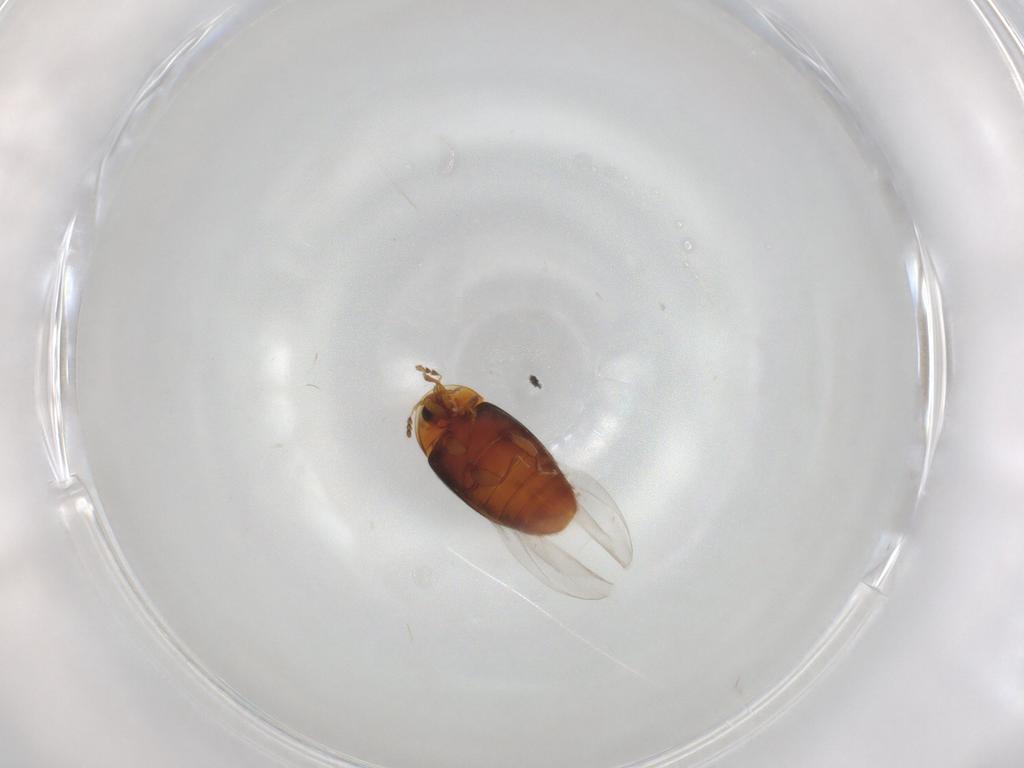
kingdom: Animalia
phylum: Arthropoda
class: Insecta
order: Coleoptera
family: Corylophidae
